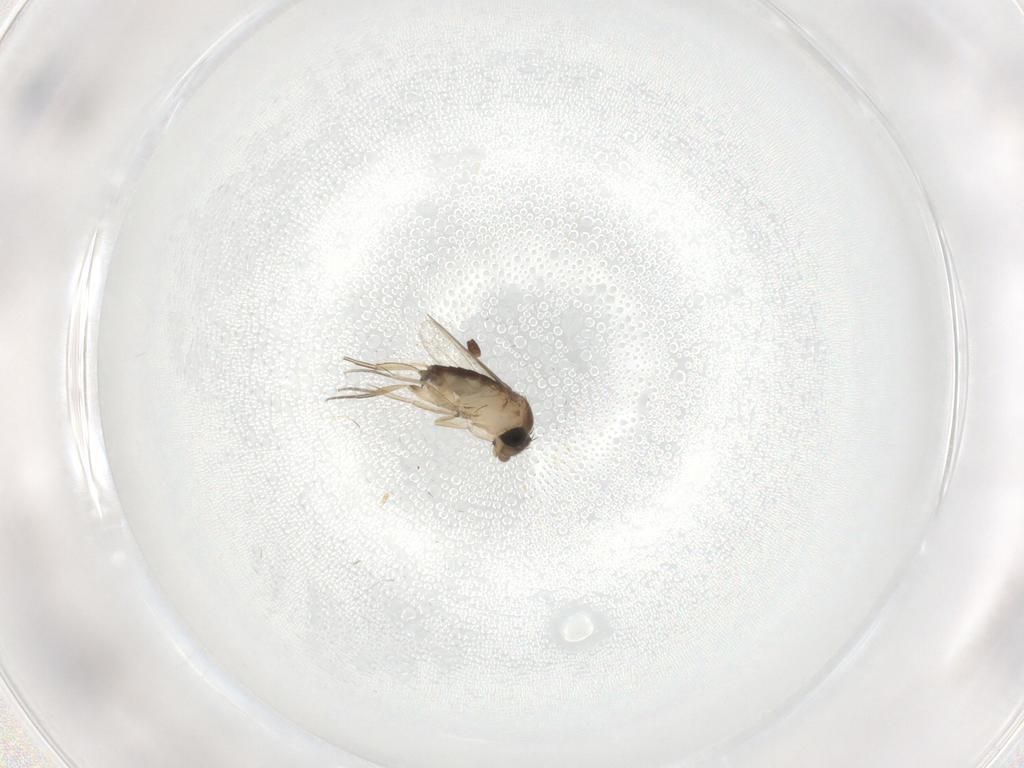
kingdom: Animalia
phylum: Arthropoda
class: Insecta
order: Diptera
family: Phoridae
